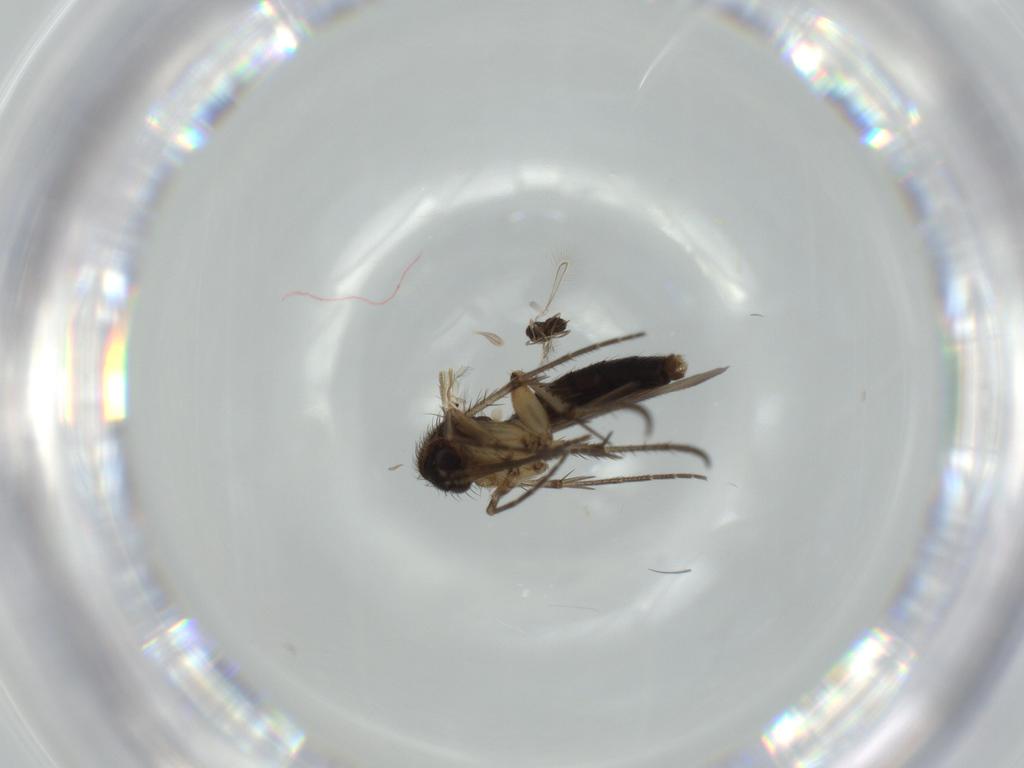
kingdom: Animalia
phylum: Arthropoda
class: Insecta
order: Diptera
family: Sciaridae
